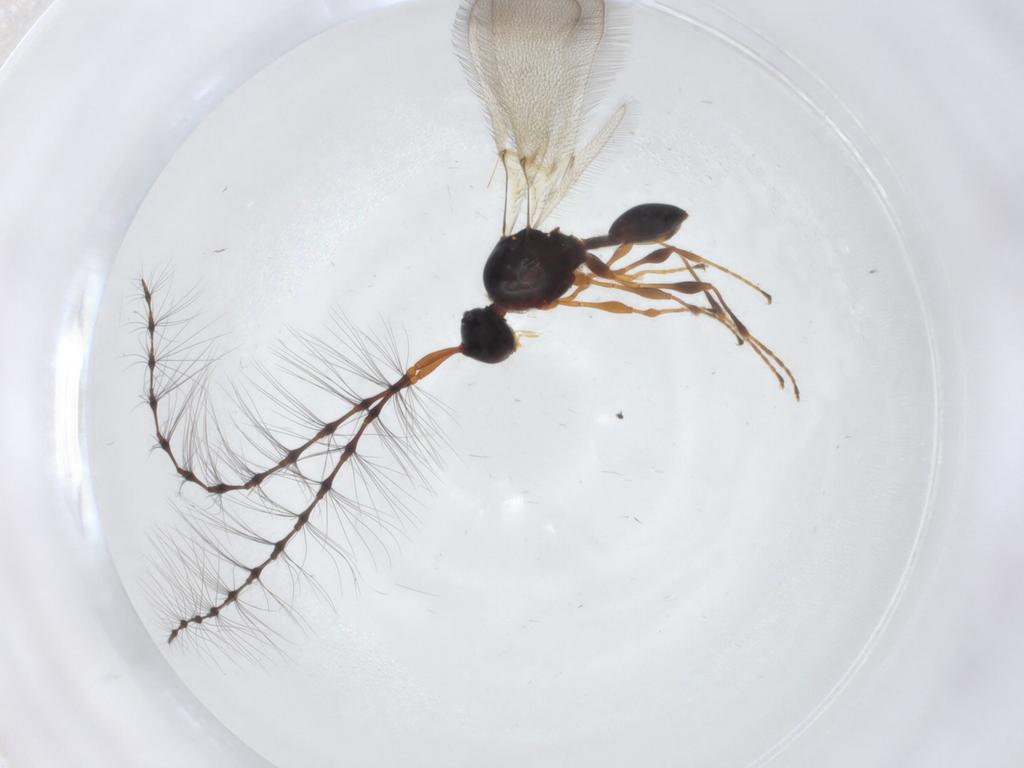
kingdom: Animalia
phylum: Arthropoda
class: Insecta
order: Hymenoptera
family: Diapriidae
